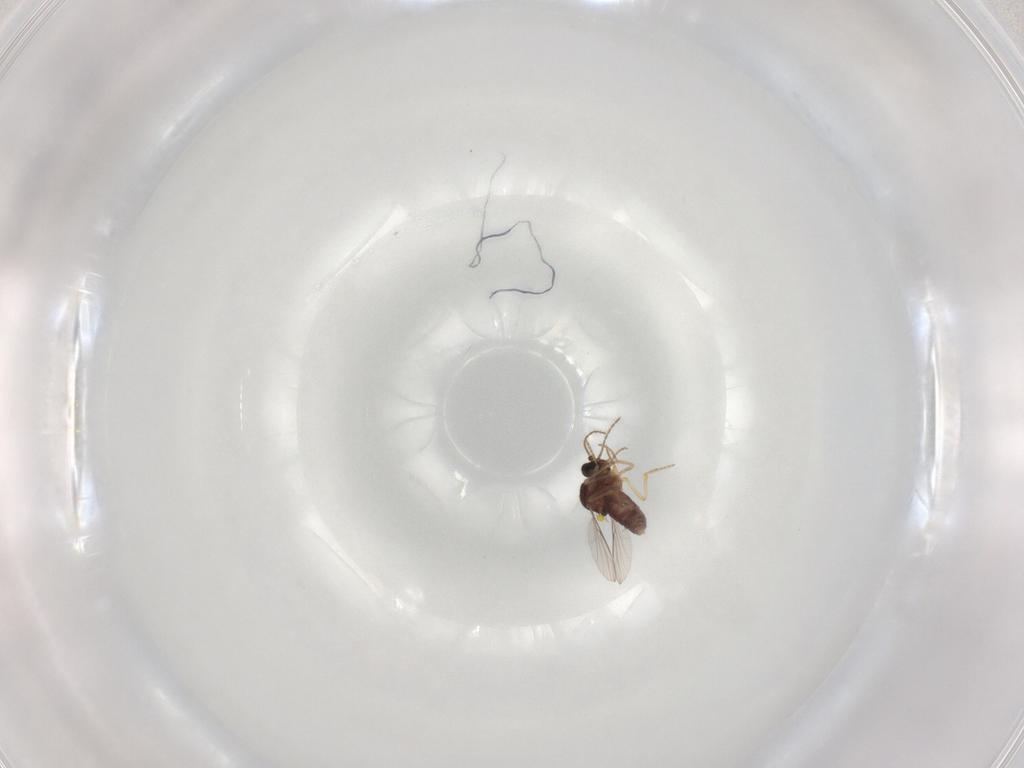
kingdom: Animalia
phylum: Arthropoda
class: Insecta
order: Diptera
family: Ceratopogonidae
